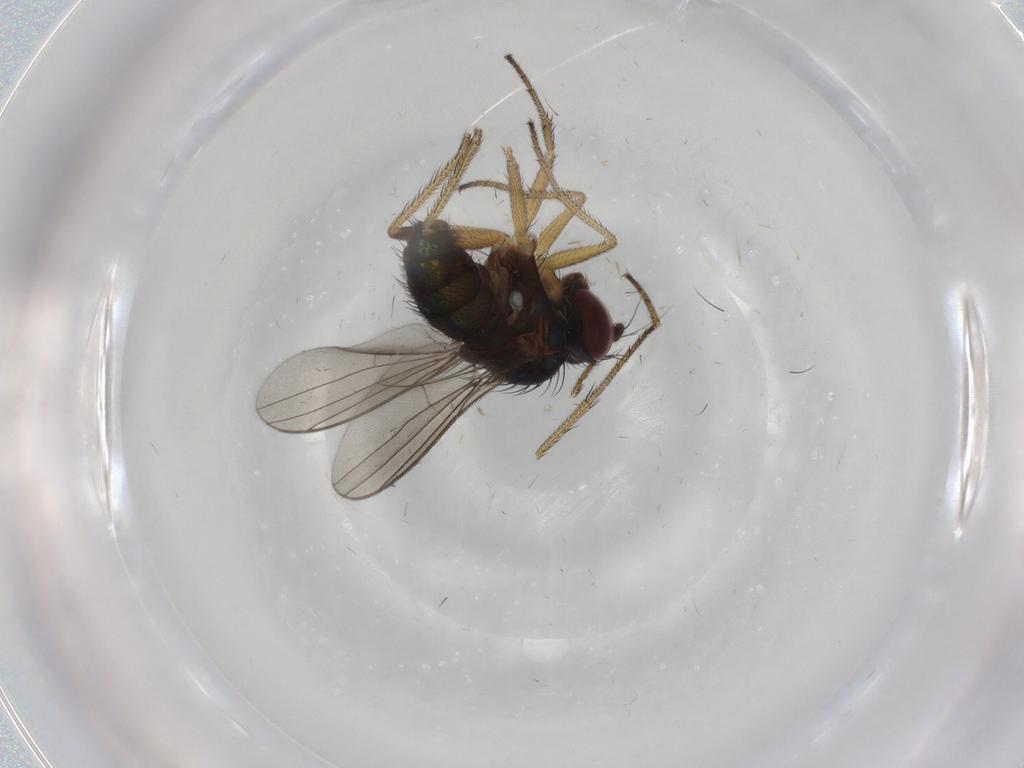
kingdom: Animalia
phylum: Arthropoda
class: Insecta
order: Diptera
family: Dolichopodidae
